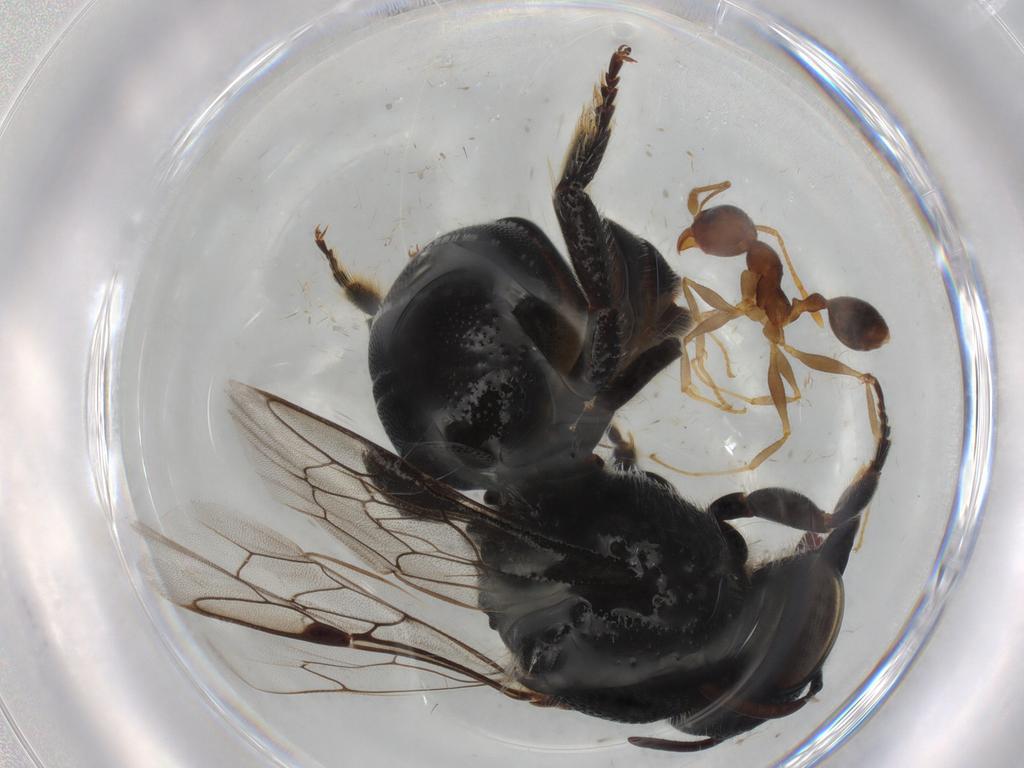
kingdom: Animalia
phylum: Arthropoda
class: Insecta
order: Hymenoptera
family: Megachilidae
